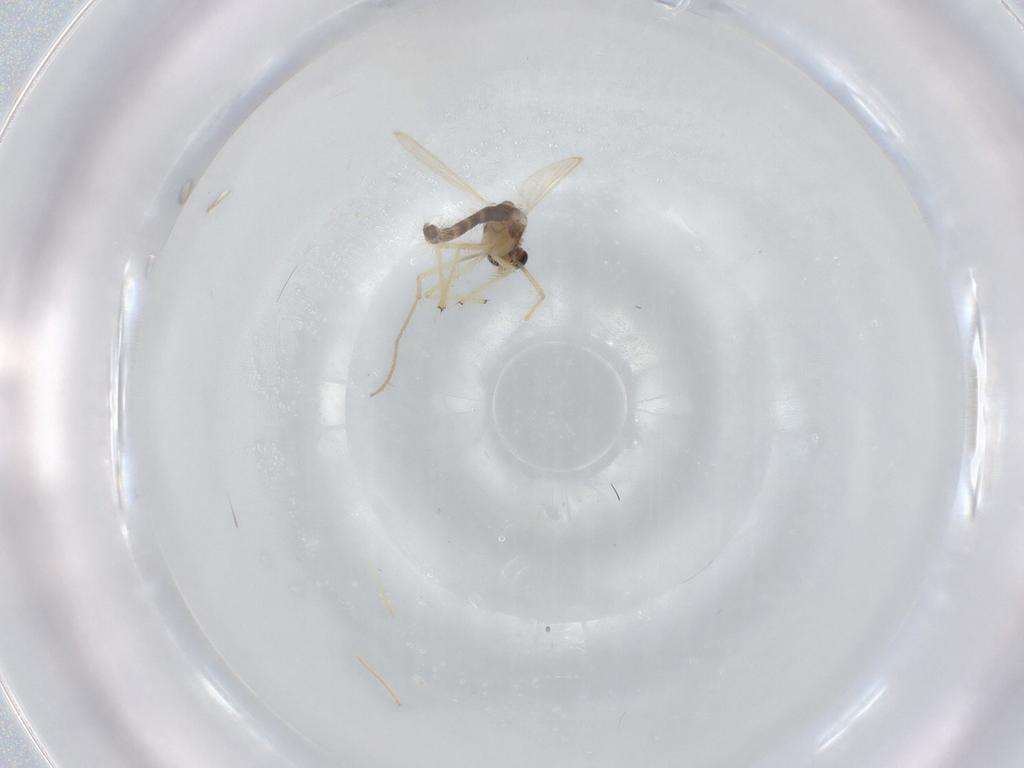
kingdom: Animalia
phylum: Arthropoda
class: Insecta
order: Diptera
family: Chironomidae
